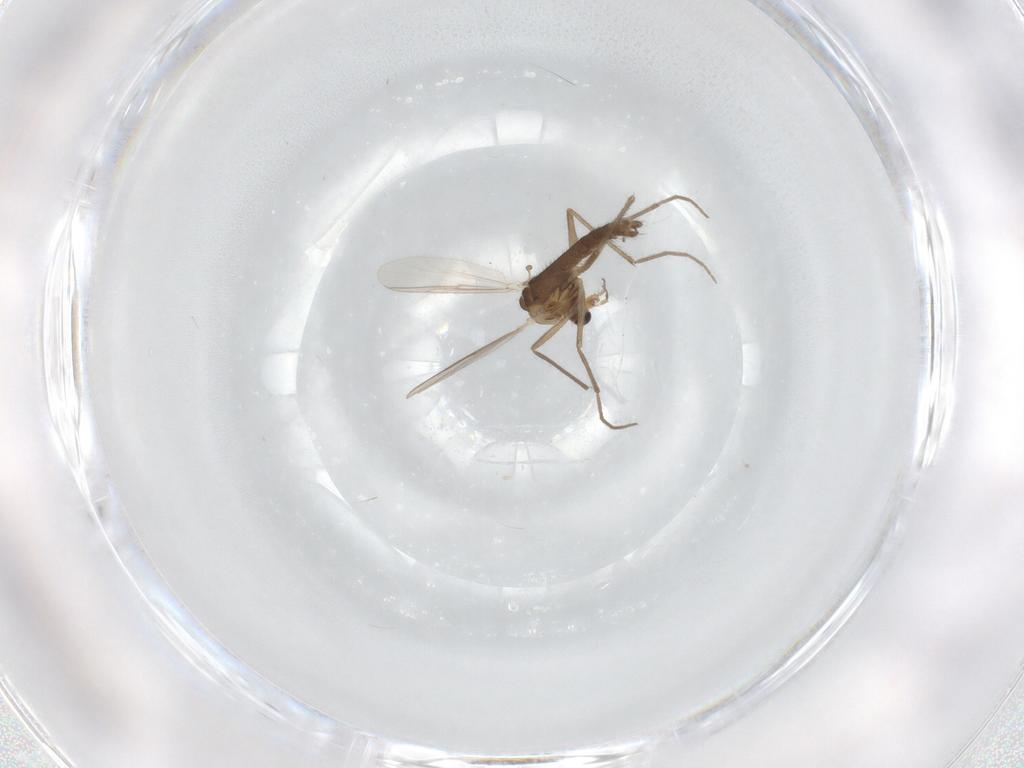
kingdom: Animalia
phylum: Arthropoda
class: Insecta
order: Diptera
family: Chironomidae
